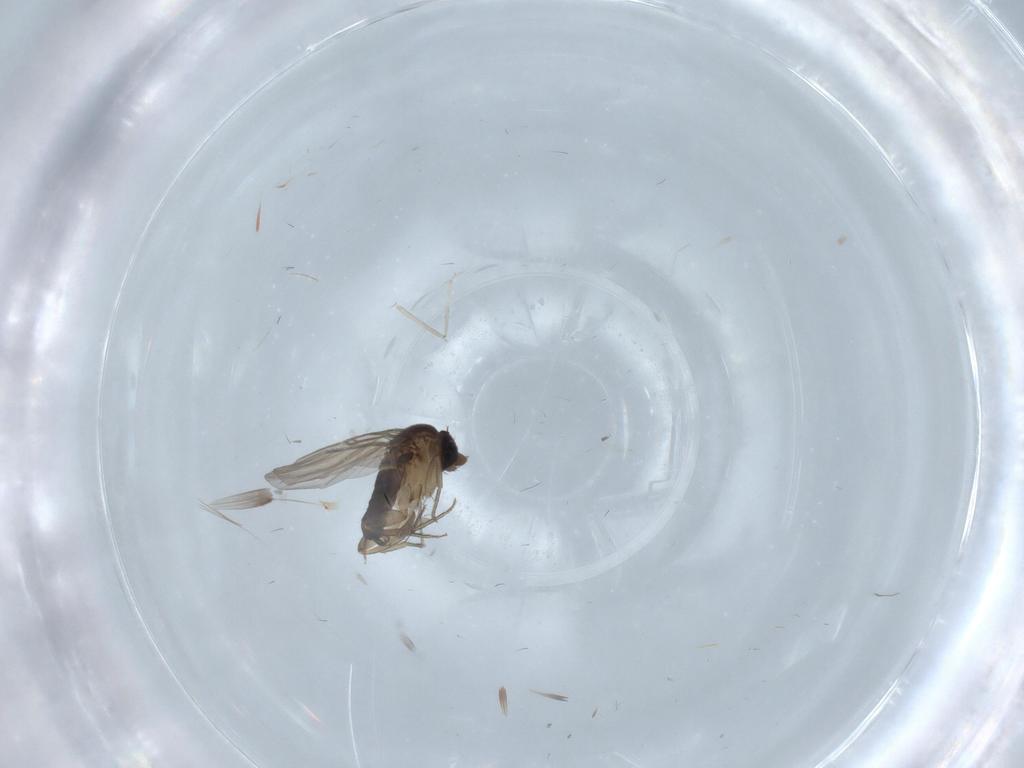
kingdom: Animalia
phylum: Arthropoda
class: Insecta
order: Diptera
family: Cecidomyiidae
